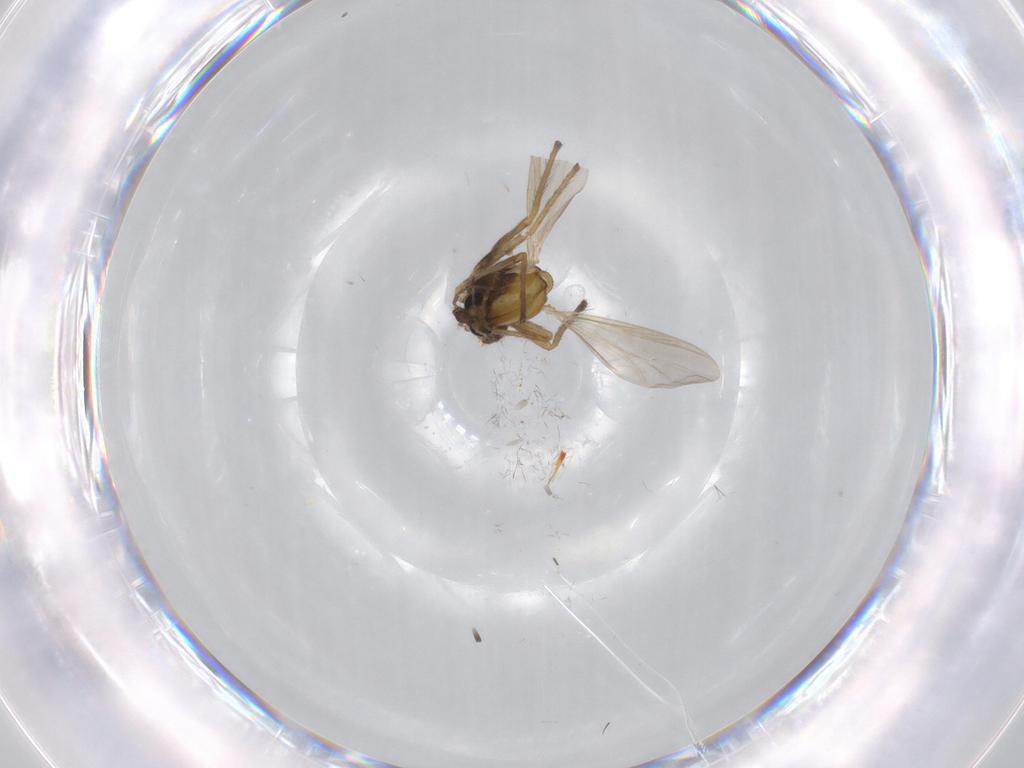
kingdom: Animalia
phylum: Arthropoda
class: Insecta
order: Diptera
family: Chironomidae
